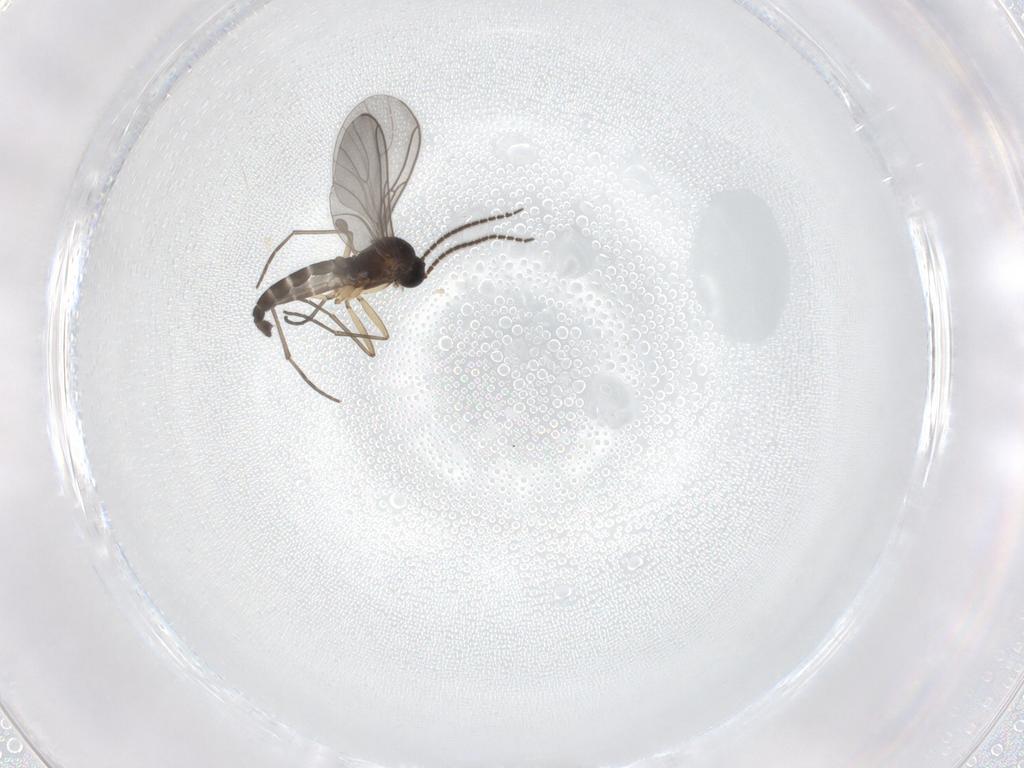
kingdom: Animalia
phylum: Arthropoda
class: Insecta
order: Diptera
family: Sciaridae
